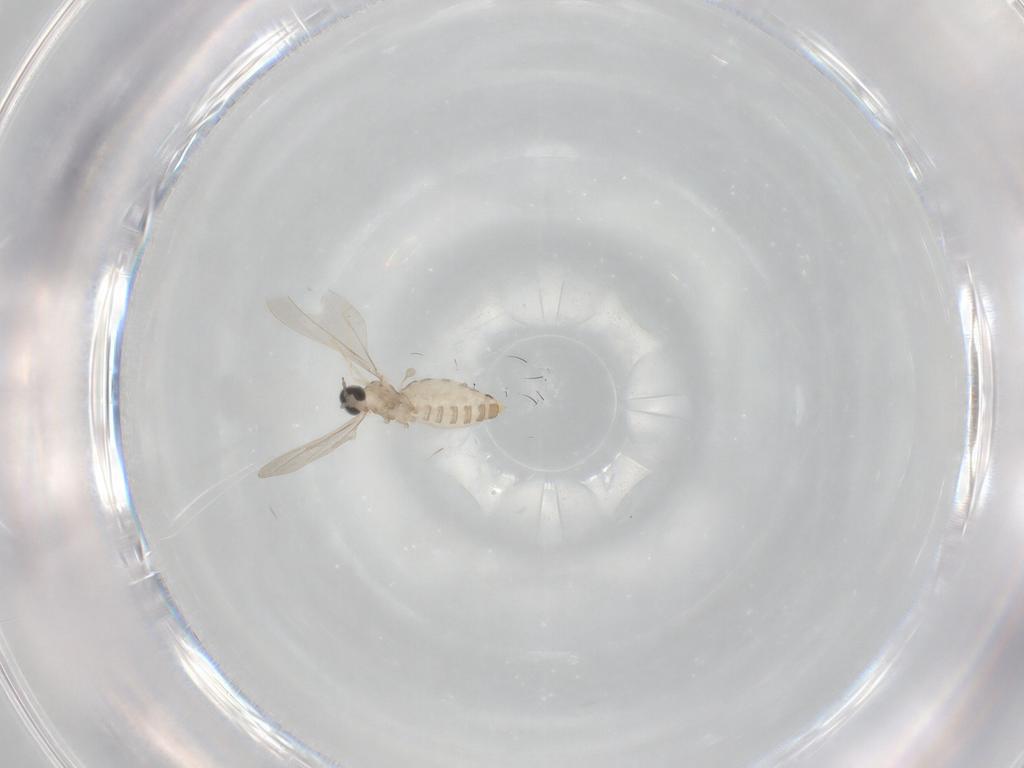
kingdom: Animalia
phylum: Arthropoda
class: Insecta
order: Diptera
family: Cecidomyiidae
